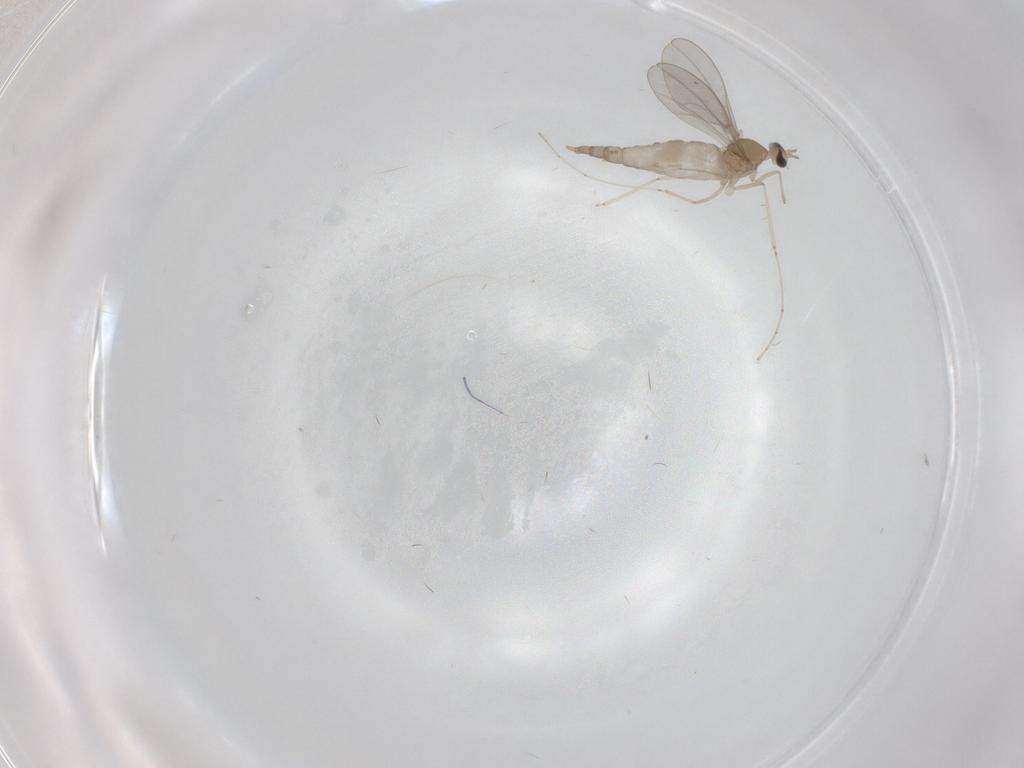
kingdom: Animalia
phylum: Arthropoda
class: Insecta
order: Diptera
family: Cecidomyiidae
